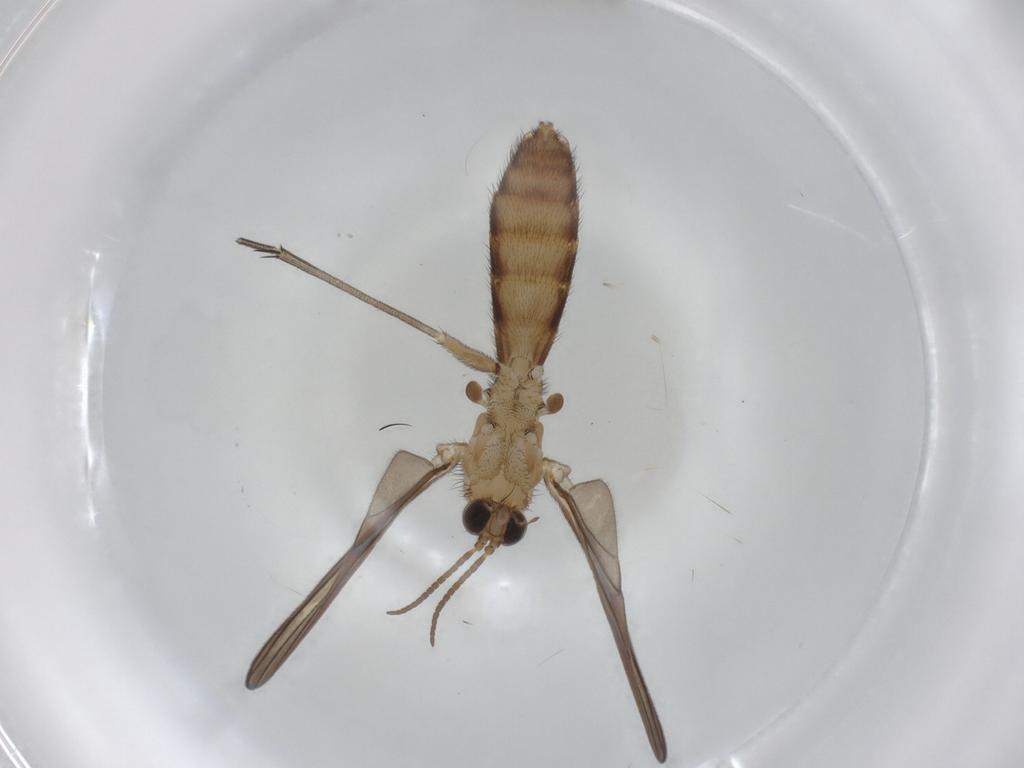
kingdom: Animalia
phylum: Arthropoda
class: Insecta
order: Diptera
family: Keroplatidae
